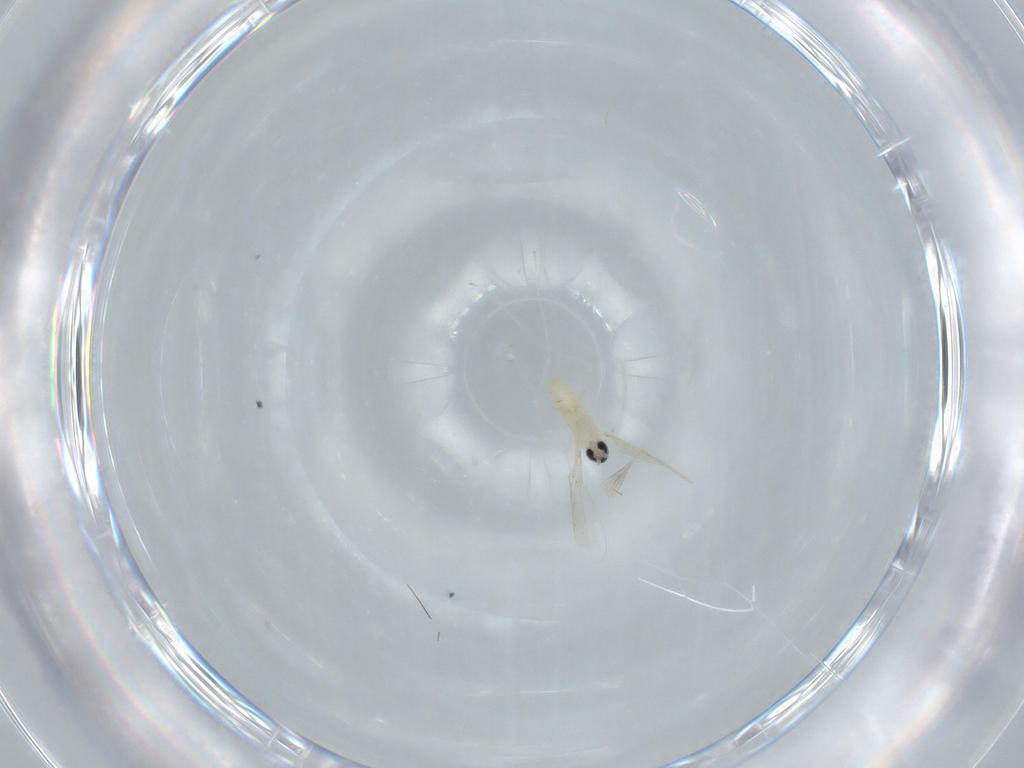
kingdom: Animalia
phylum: Arthropoda
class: Insecta
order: Diptera
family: Cecidomyiidae
